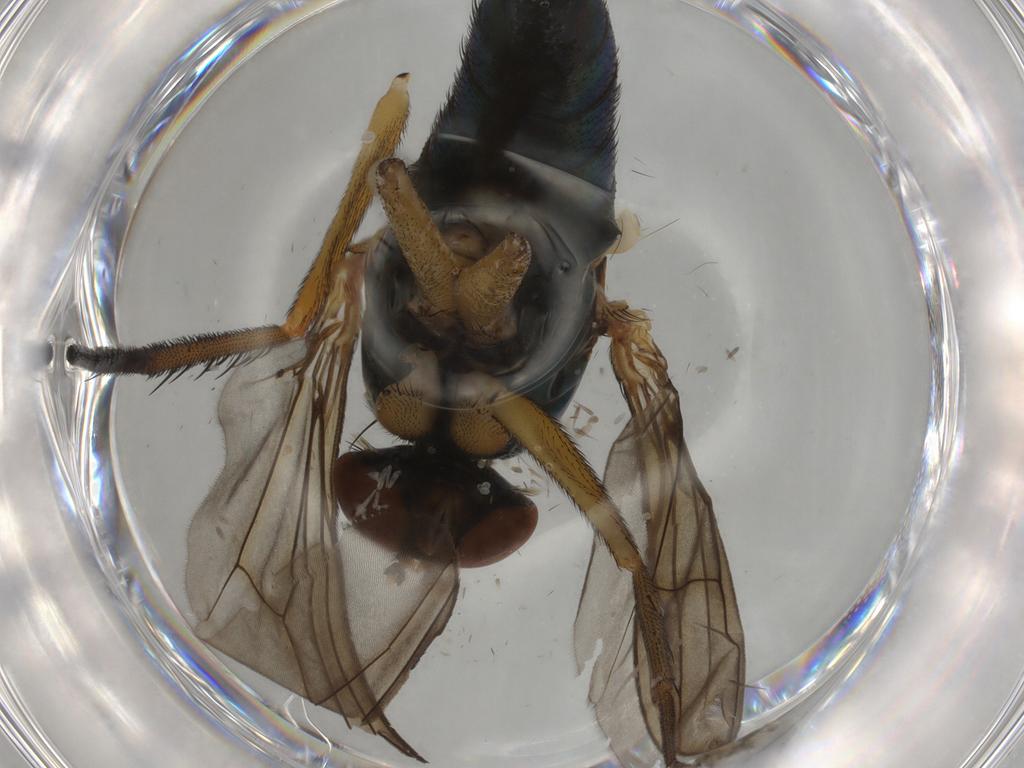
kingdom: Animalia
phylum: Arthropoda
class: Insecta
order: Diptera
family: Dolichopodidae
